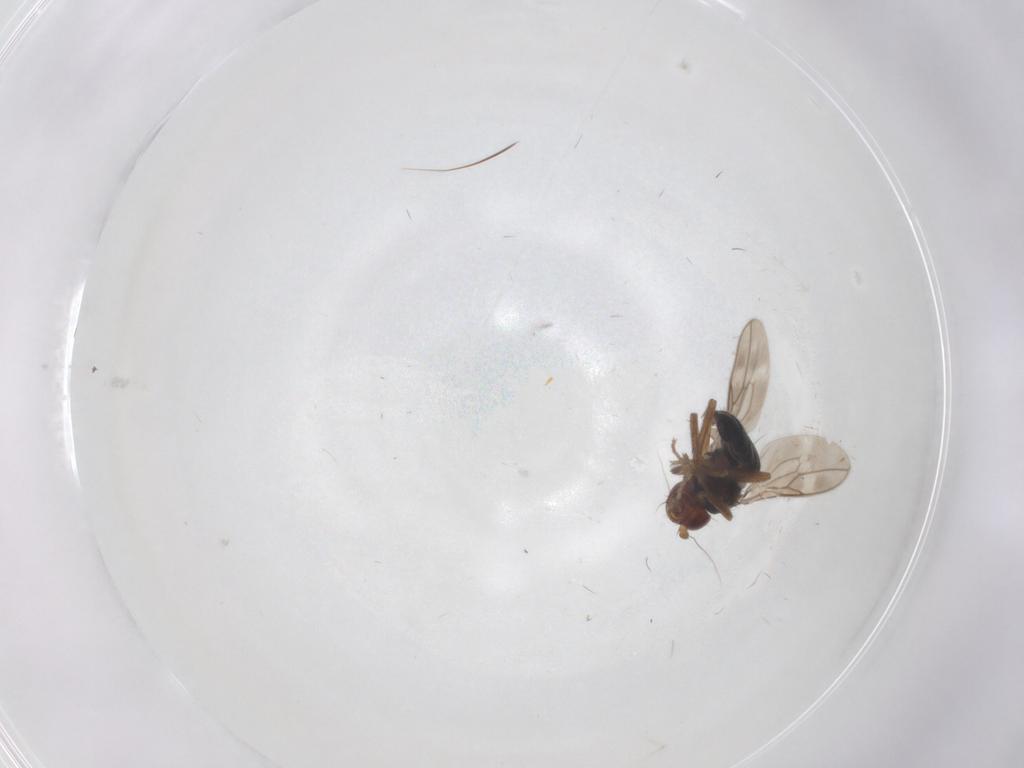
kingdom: Animalia
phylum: Arthropoda
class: Insecta
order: Diptera
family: Sphaeroceridae
